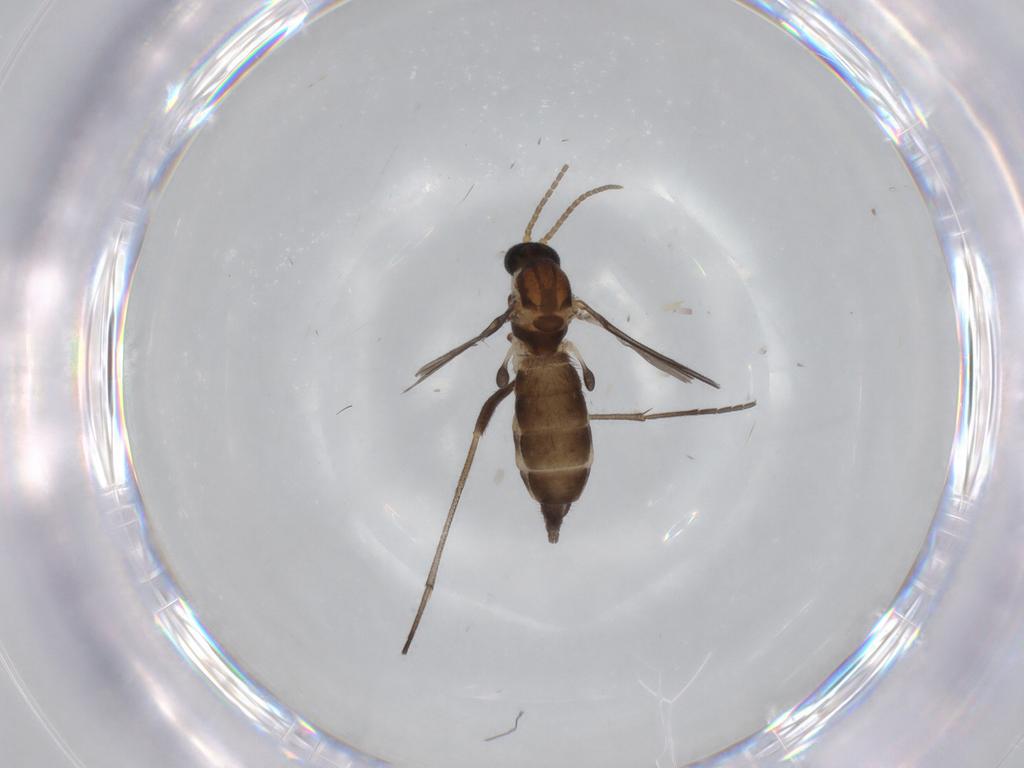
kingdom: Animalia
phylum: Arthropoda
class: Insecta
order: Diptera
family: Sciaridae
